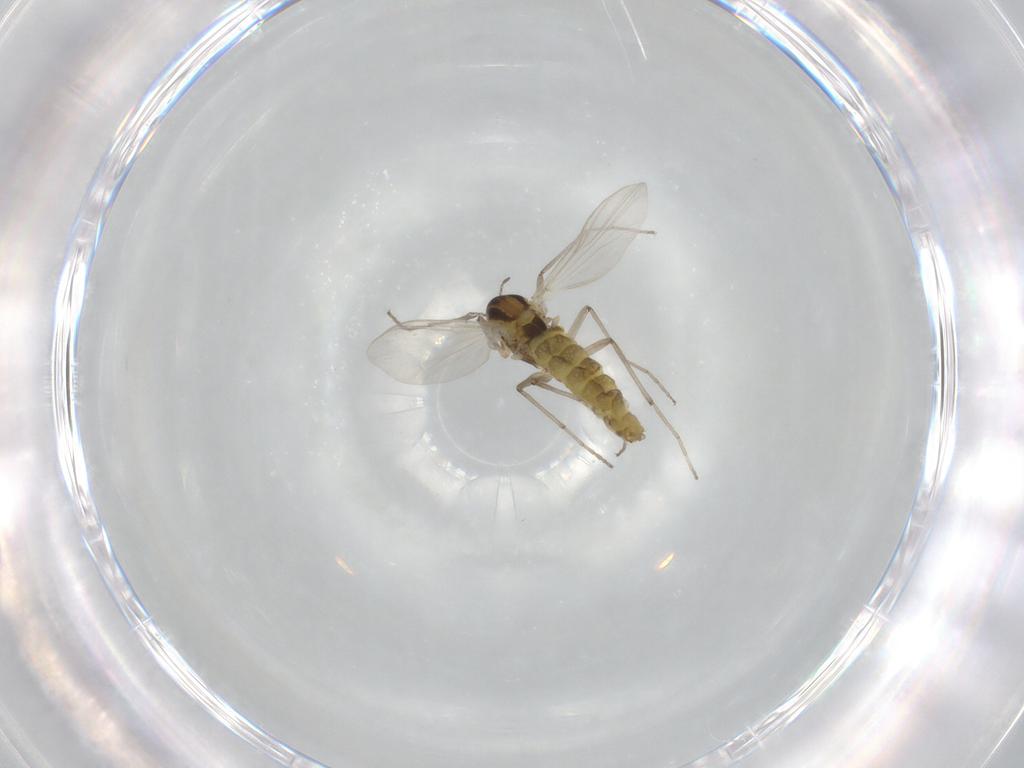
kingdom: Animalia
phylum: Arthropoda
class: Insecta
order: Diptera
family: Chironomidae
